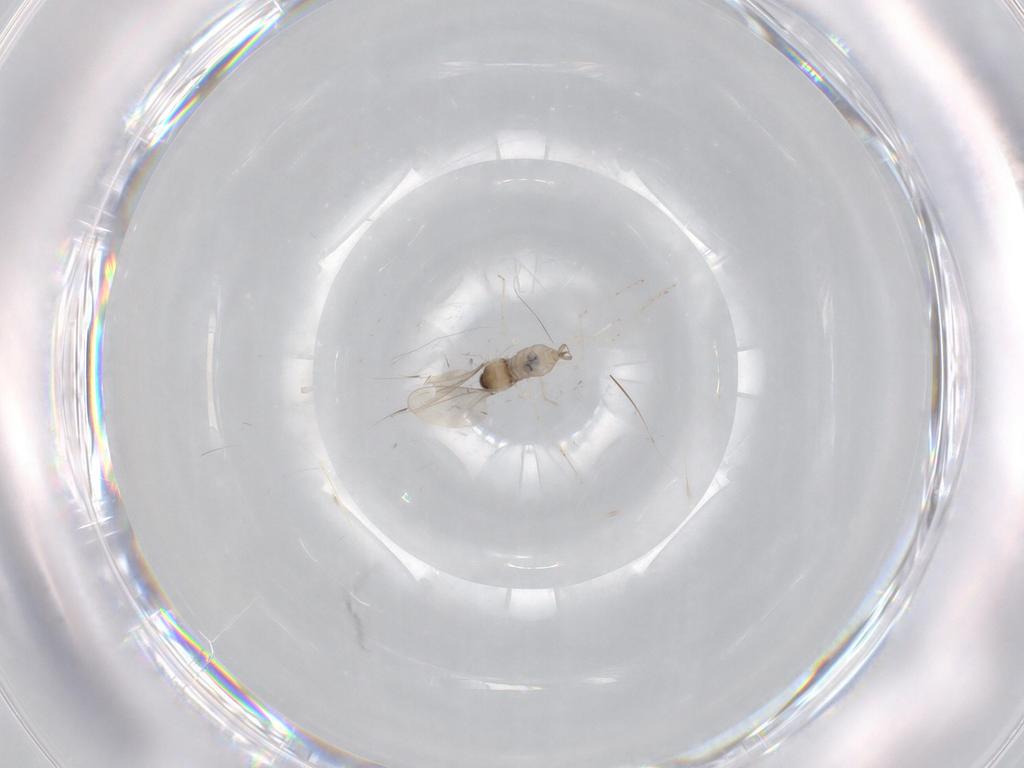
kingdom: Animalia
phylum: Arthropoda
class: Insecta
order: Diptera
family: Cecidomyiidae
